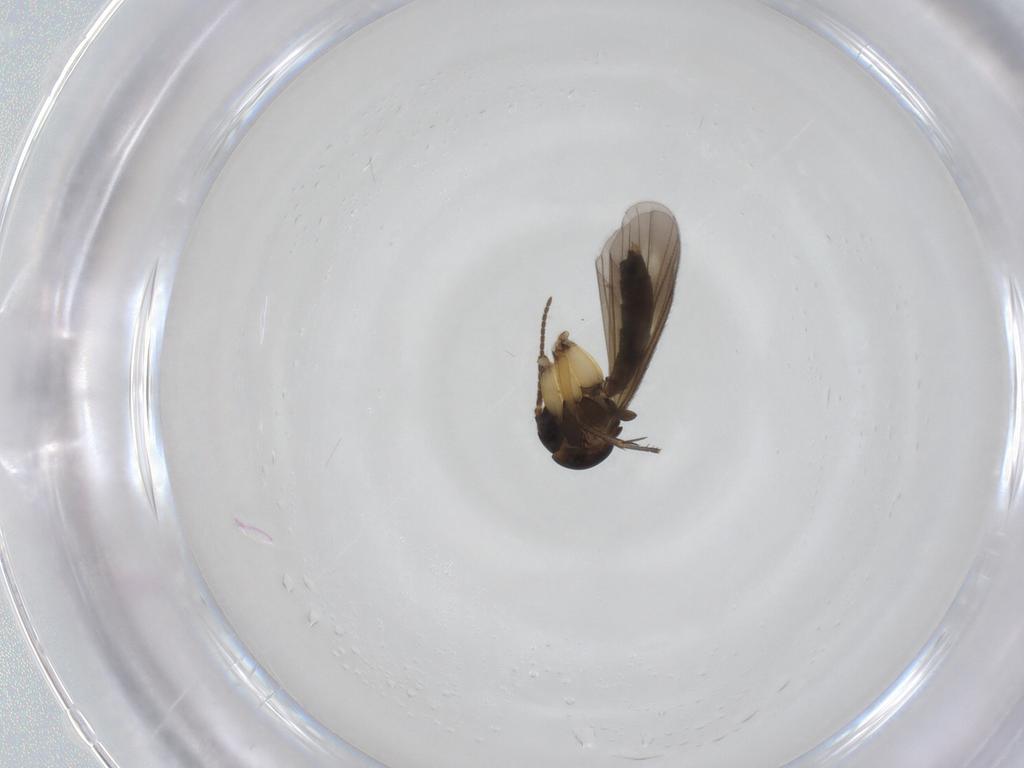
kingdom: Animalia
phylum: Arthropoda
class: Insecta
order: Diptera
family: Mycetophilidae
